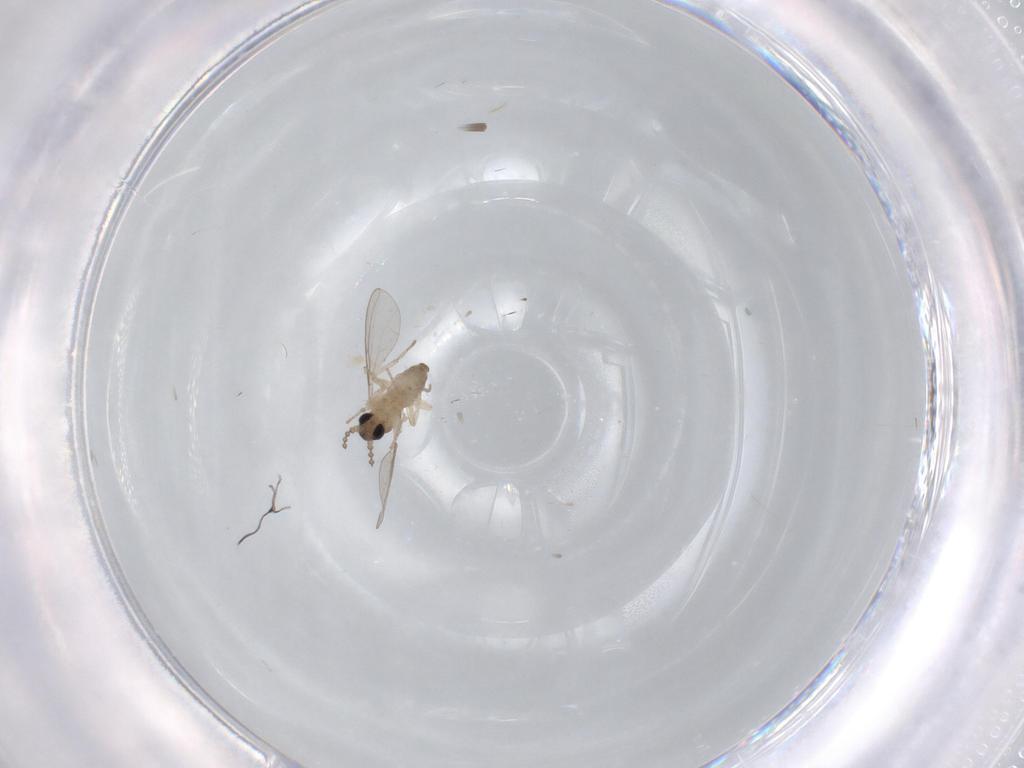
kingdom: Animalia
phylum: Arthropoda
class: Insecta
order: Diptera
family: Cecidomyiidae
